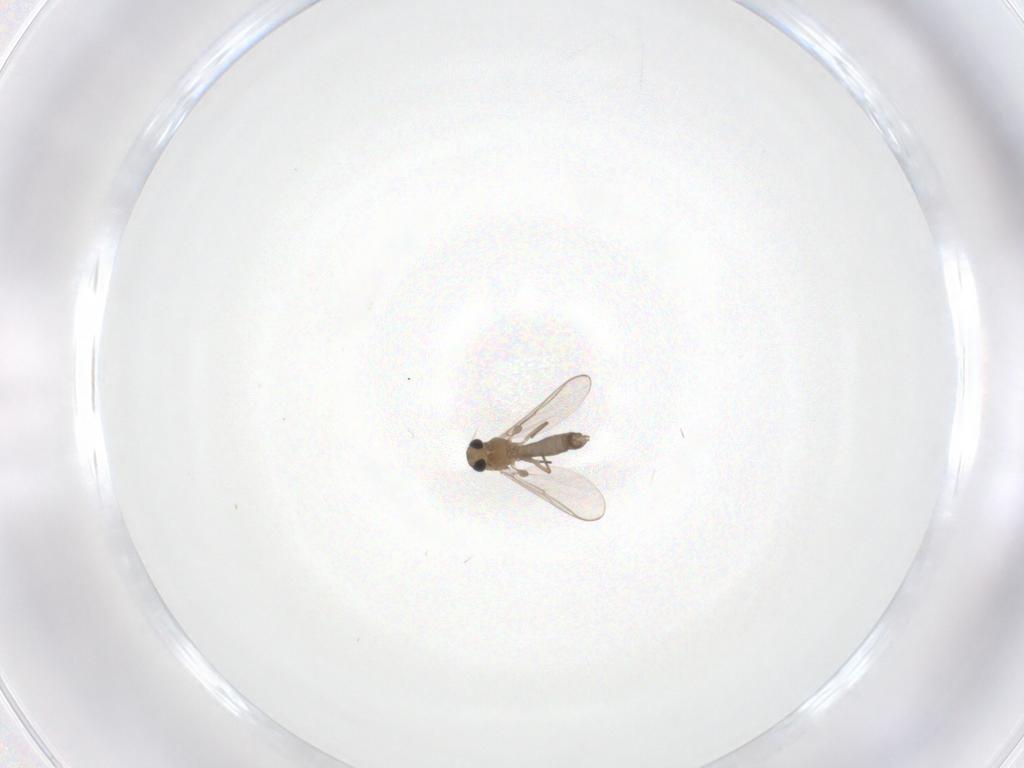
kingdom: Animalia
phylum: Arthropoda
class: Insecta
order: Diptera
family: Chironomidae
